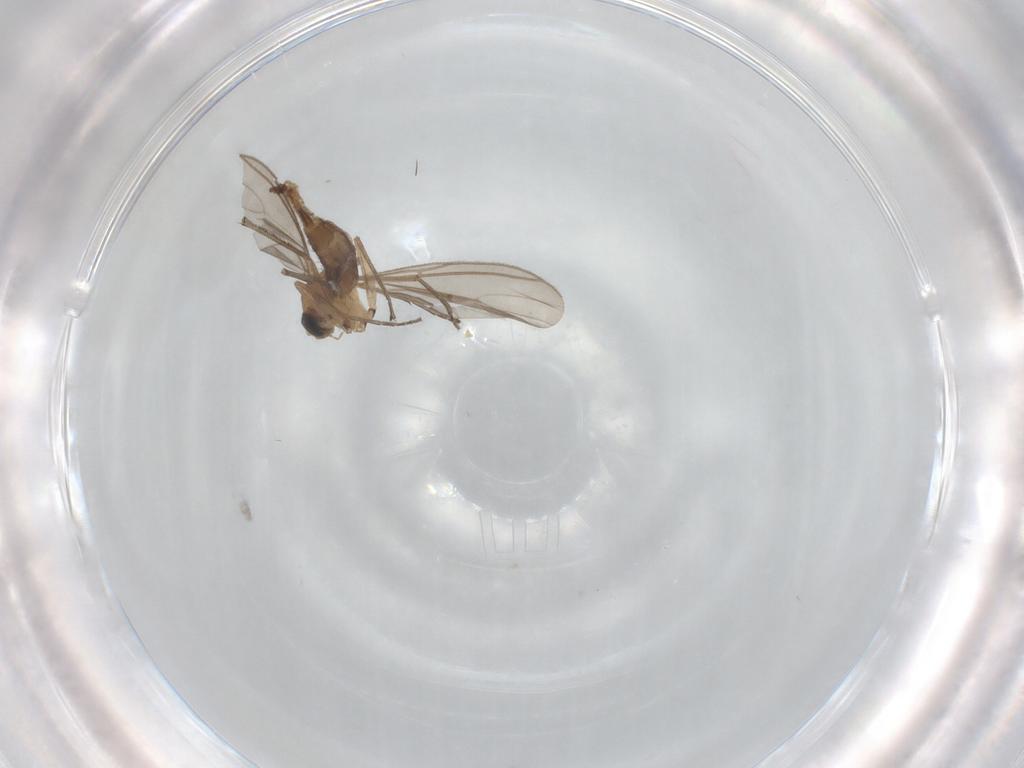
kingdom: Animalia
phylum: Arthropoda
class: Insecta
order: Diptera
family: Sciaridae
